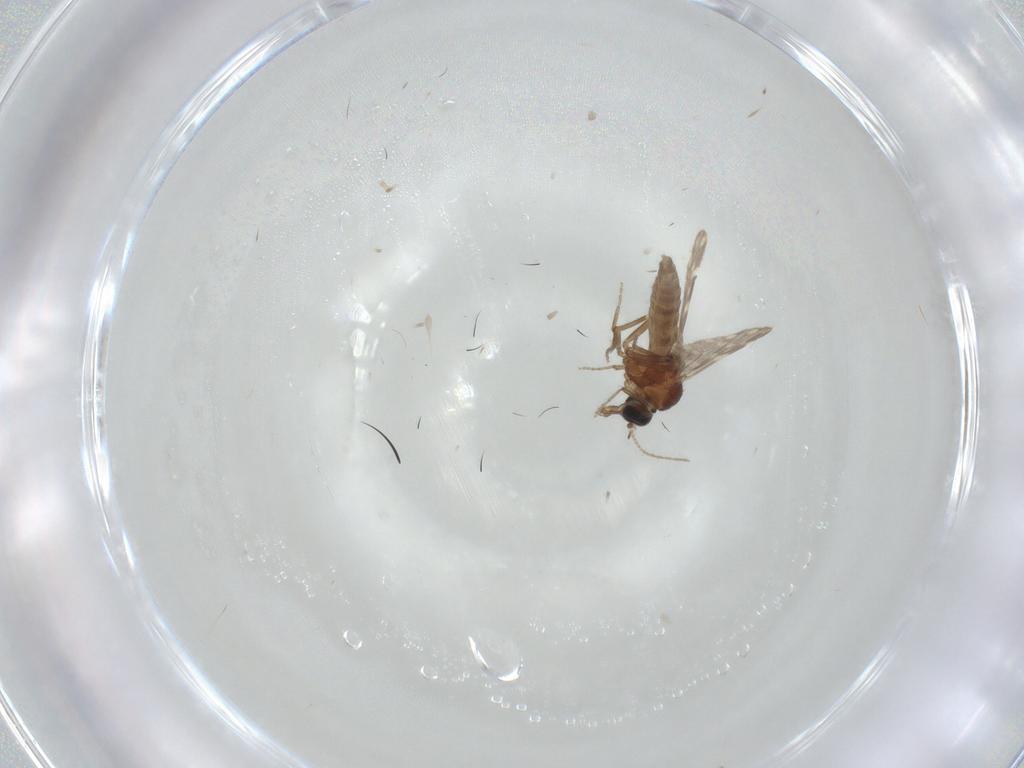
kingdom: Animalia
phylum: Arthropoda
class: Insecta
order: Diptera
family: Tachinidae
